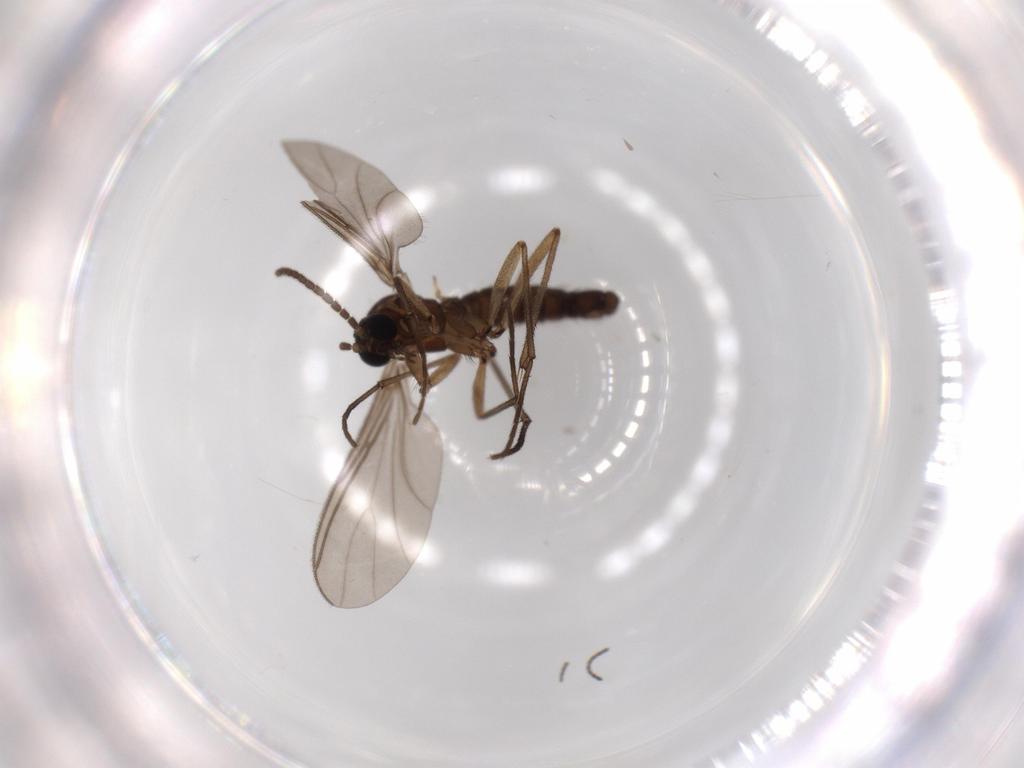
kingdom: Animalia
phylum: Arthropoda
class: Insecta
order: Diptera
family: Sciaridae
